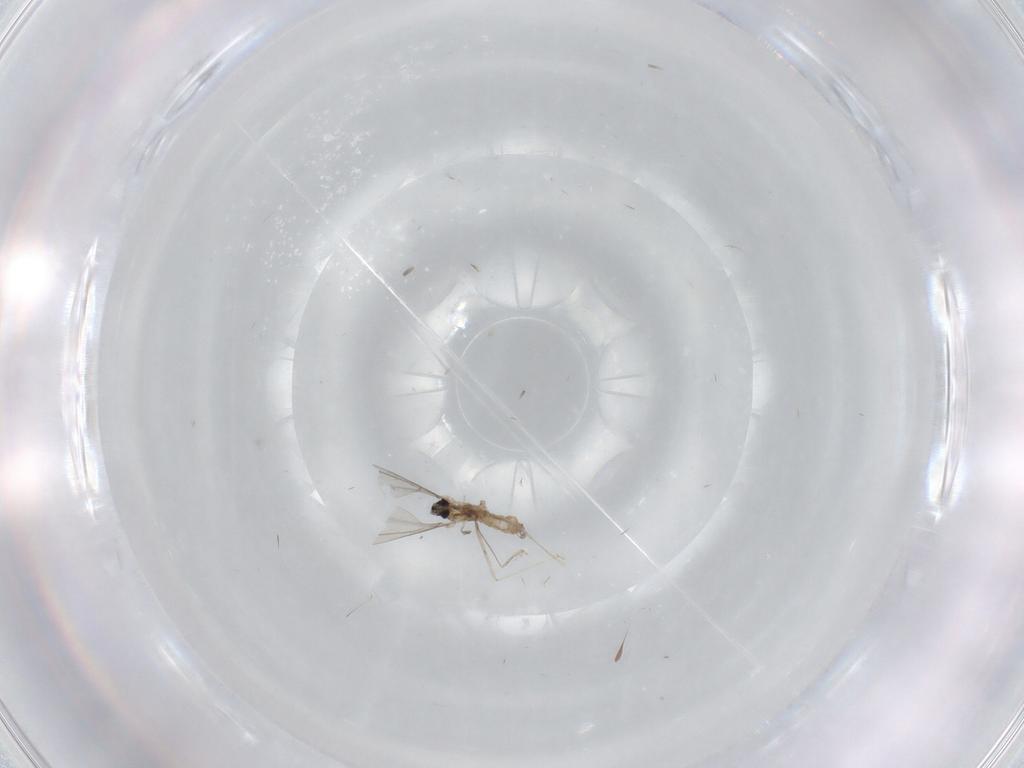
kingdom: Animalia
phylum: Arthropoda
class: Insecta
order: Diptera
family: Cecidomyiidae
